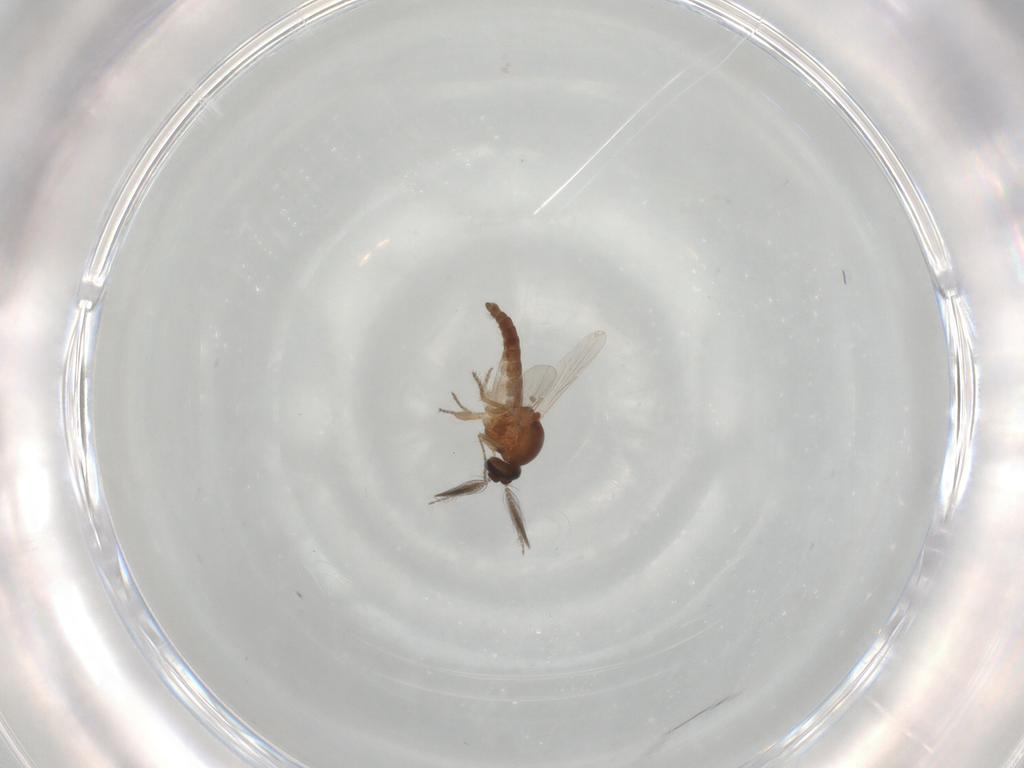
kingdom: Animalia
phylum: Arthropoda
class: Insecta
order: Diptera
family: Ceratopogonidae
